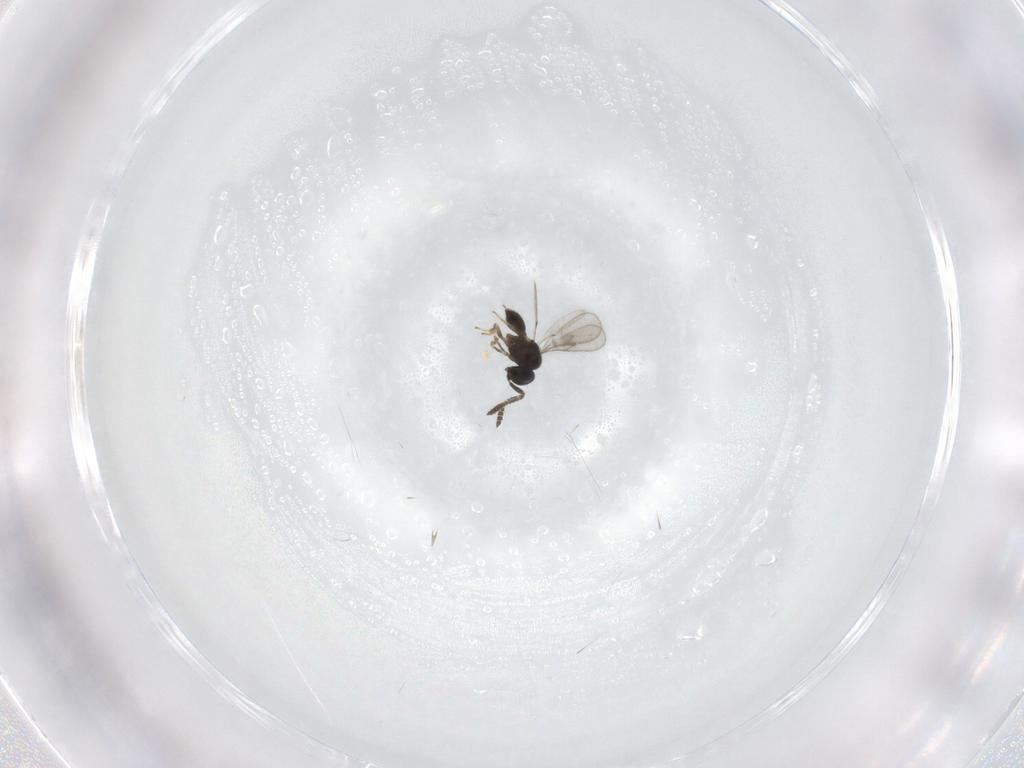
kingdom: Animalia
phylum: Arthropoda
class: Insecta
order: Hymenoptera
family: Scelionidae
